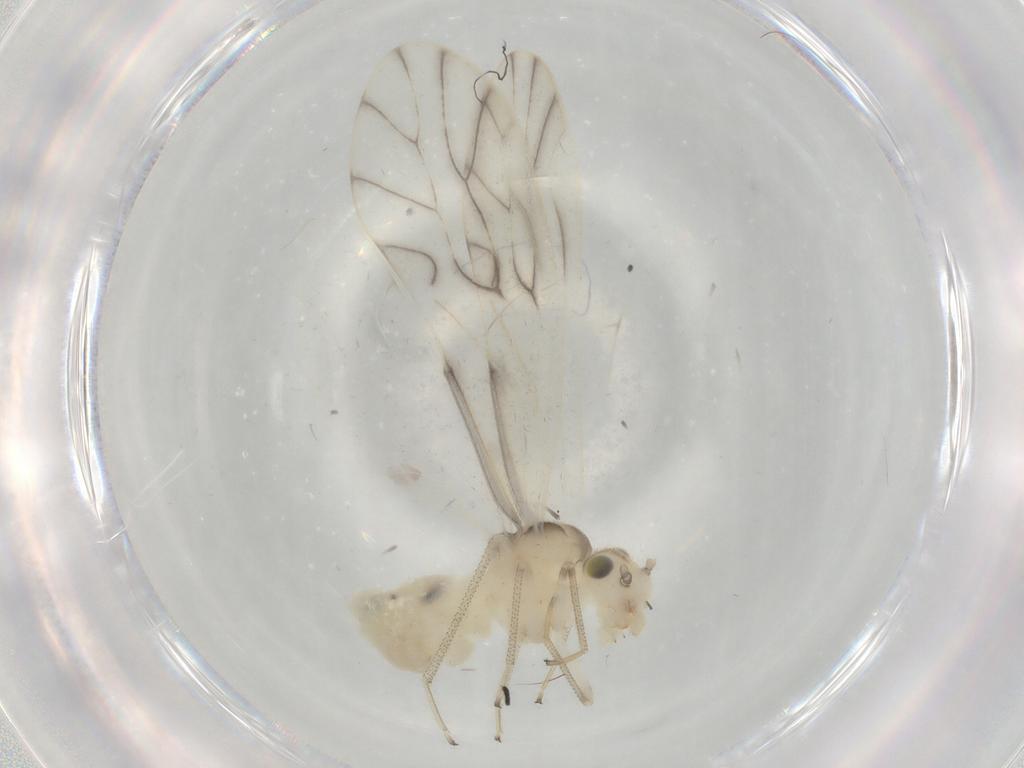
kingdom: Animalia
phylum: Arthropoda
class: Insecta
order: Psocodea
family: Caeciliusidae
